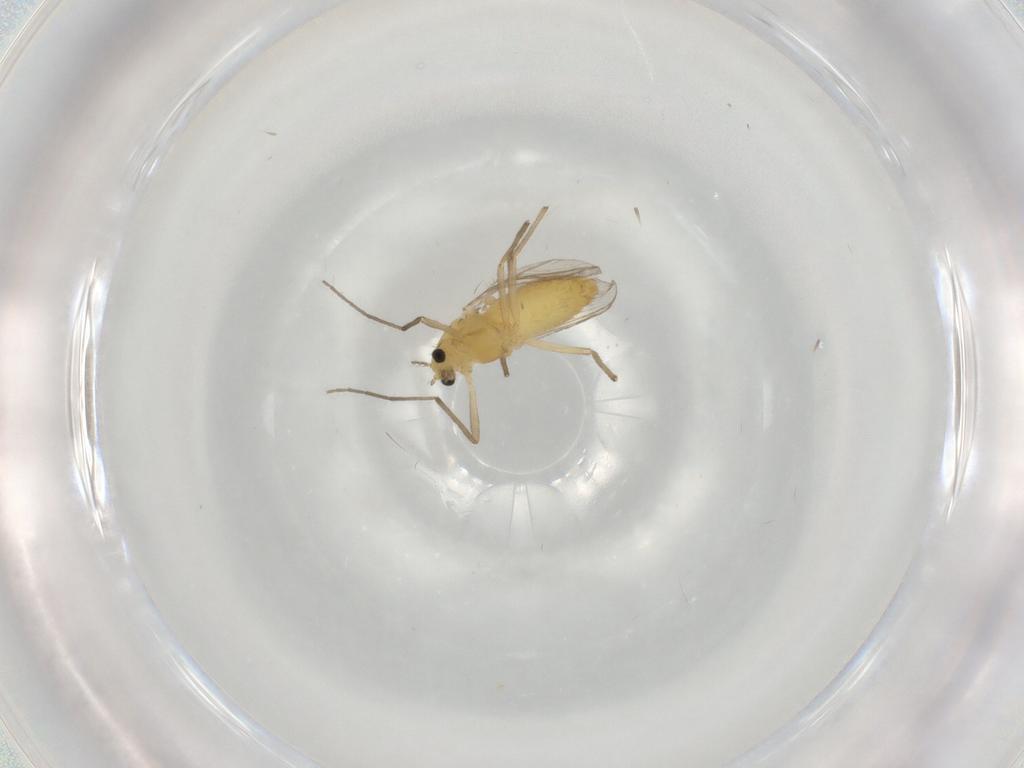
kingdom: Animalia
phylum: Arthropoda
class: Insecta
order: Diptera
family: Chironomidae
